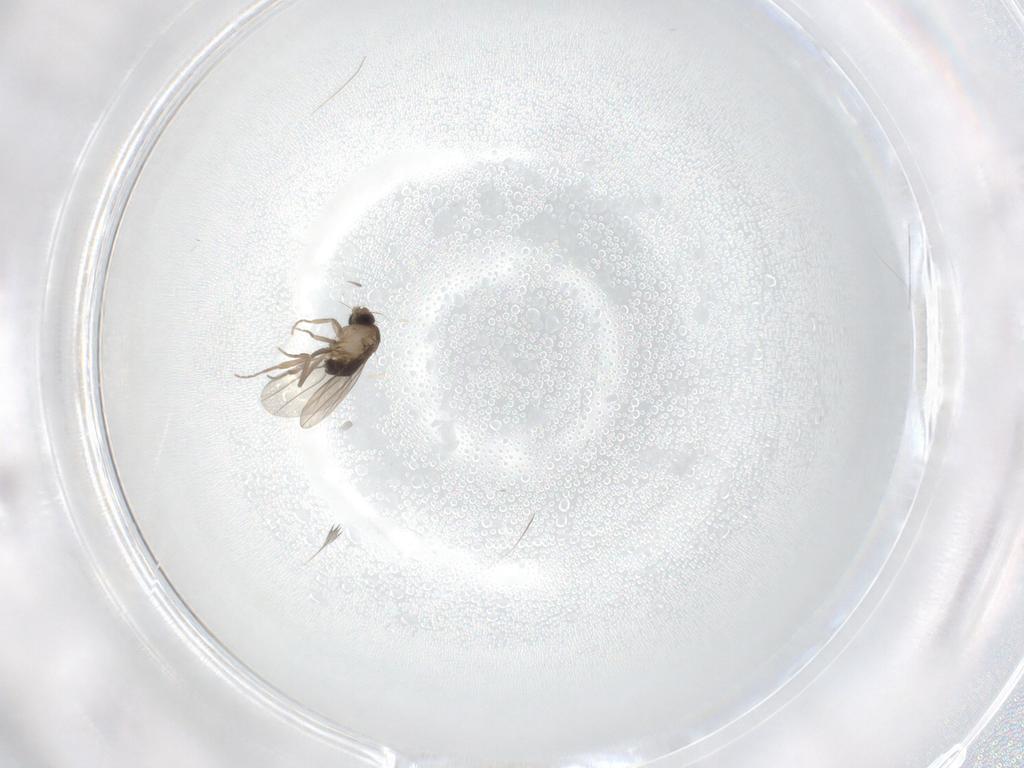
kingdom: Animalia
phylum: Arthropoda
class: Insecta
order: Diptera
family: Phoridae
